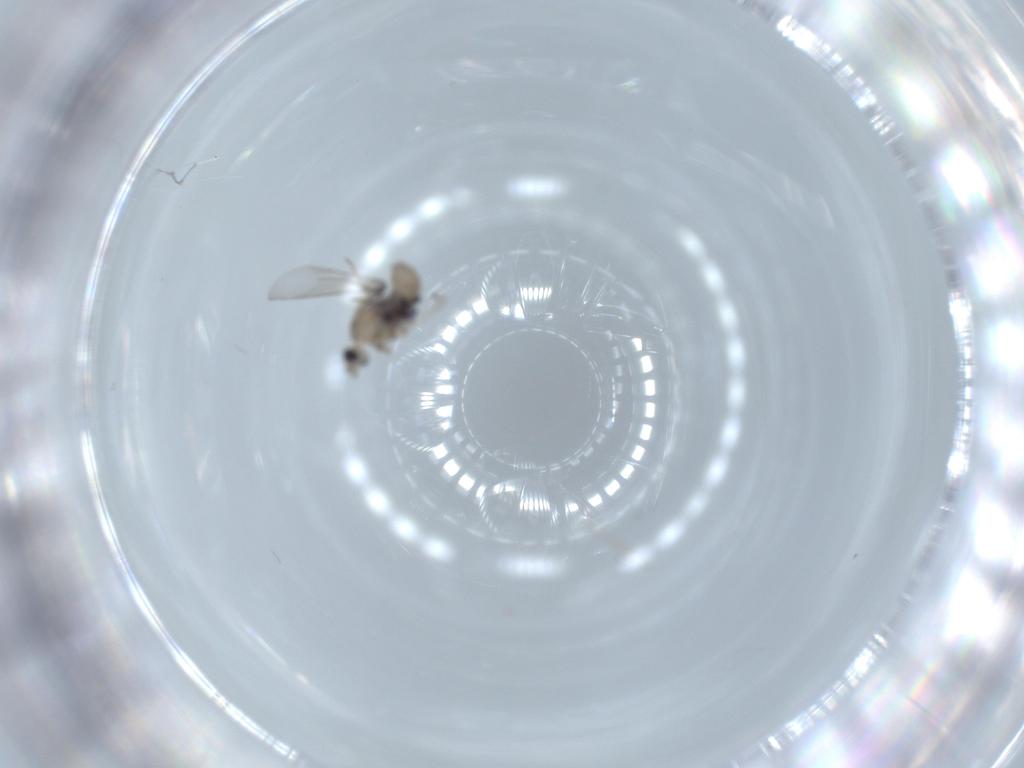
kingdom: Animalia
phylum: Arthropoda
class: Insecta
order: Diptera
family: Cecidomyiidae
